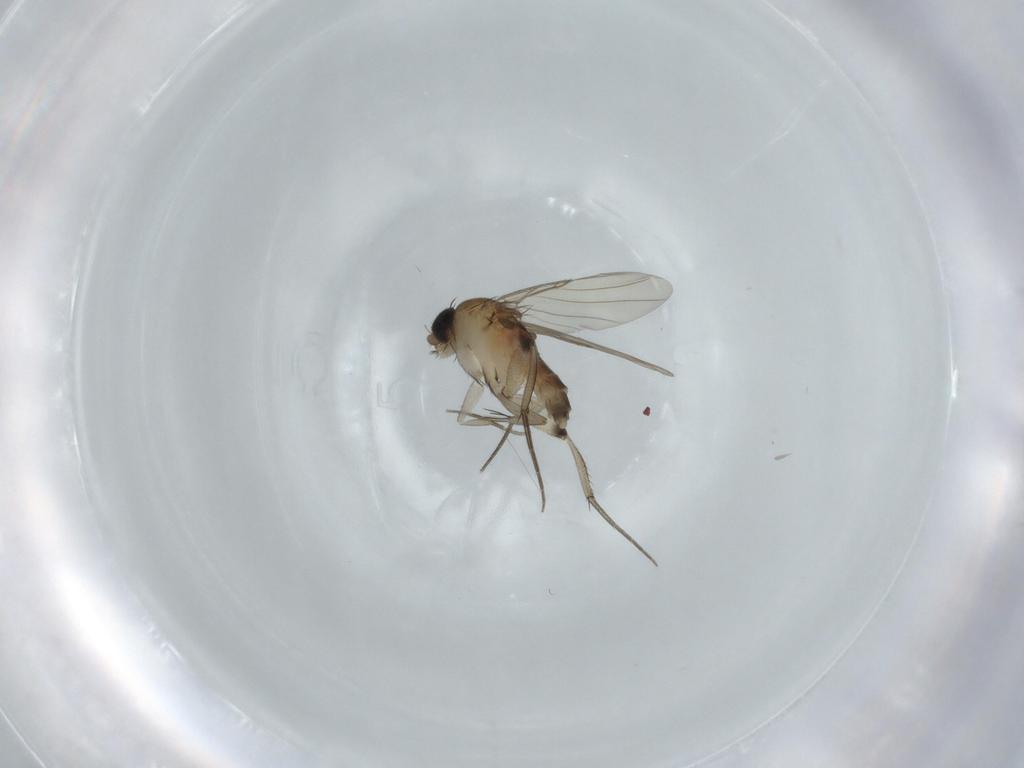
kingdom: Animalia
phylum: Arthropoda
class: Insecta
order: Diptera
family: Phoridae
